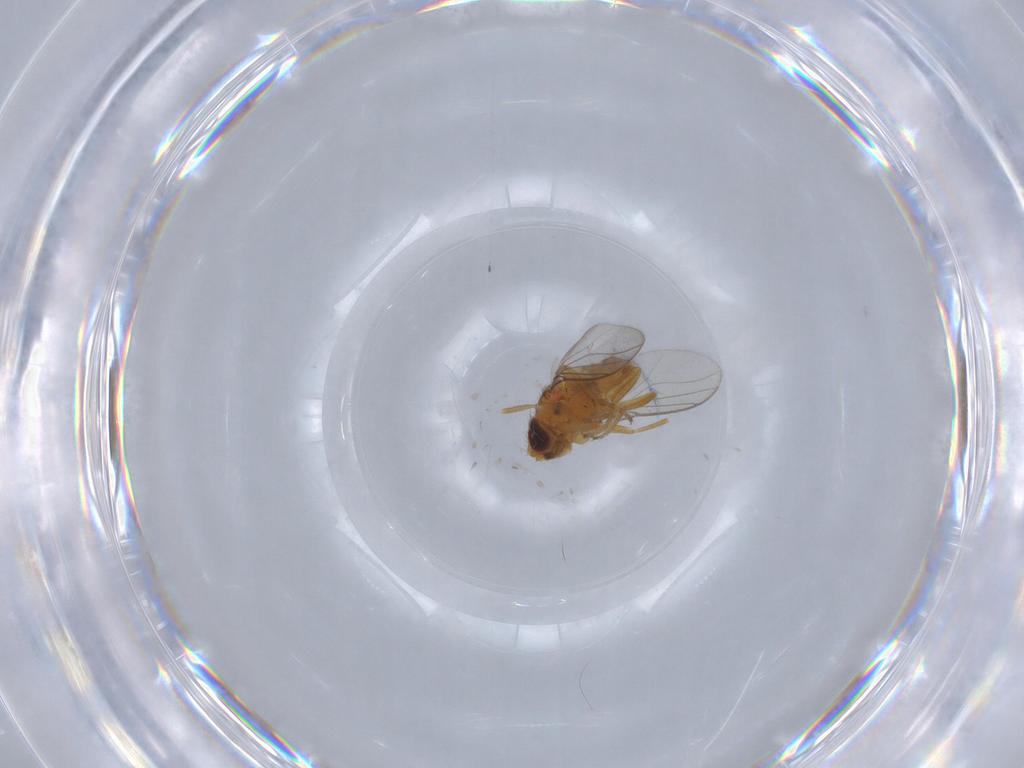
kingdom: Animalia
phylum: Arthropoda
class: Insecta
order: Diptera
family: Chloropidae
